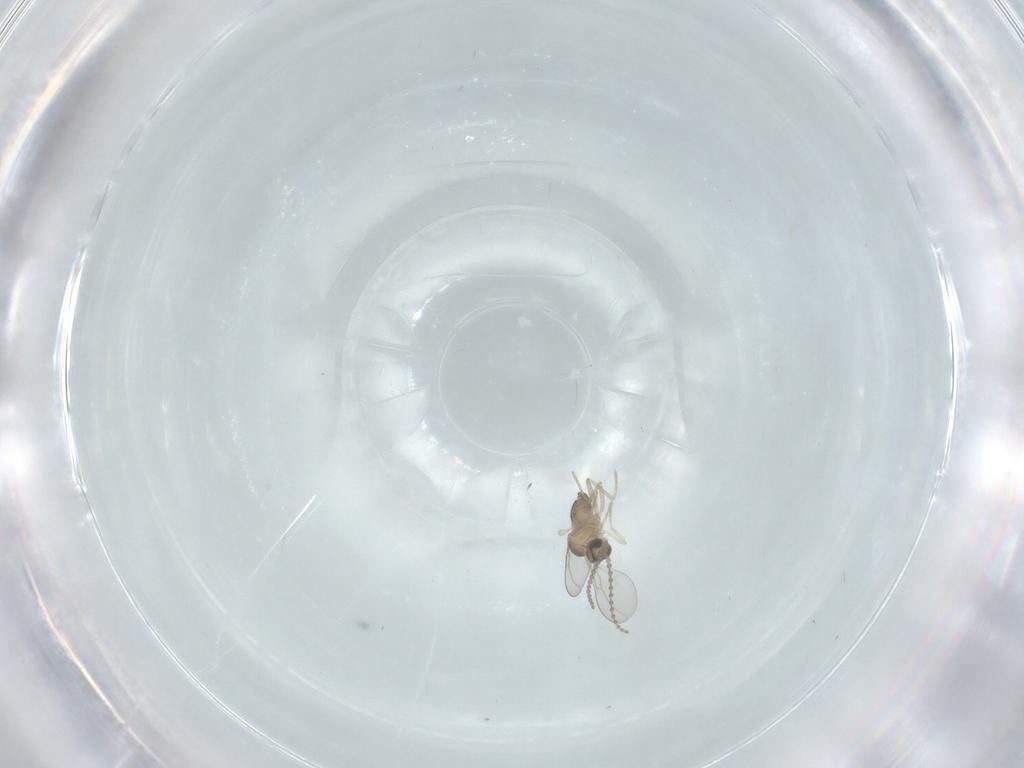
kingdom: Animalia
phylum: Arthropoda
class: Insecta
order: Diptera
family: Cecidomyiidae
